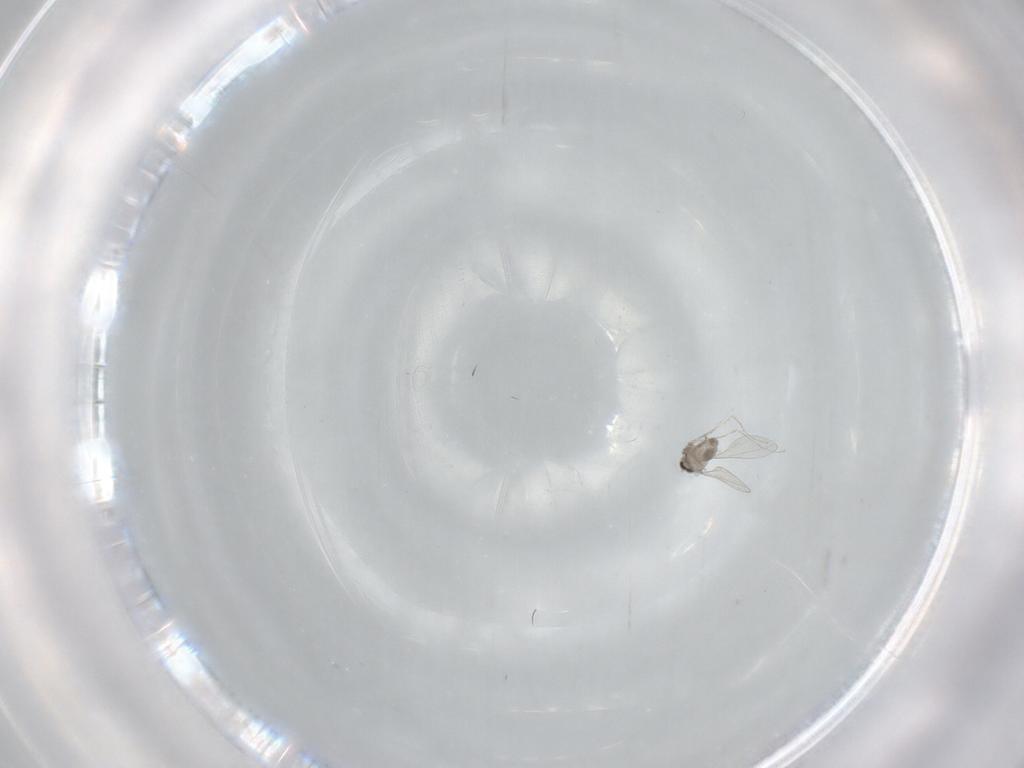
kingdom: Animalia
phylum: Arthropoda
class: Insecta
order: Diptera
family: Cecidomyiidae
